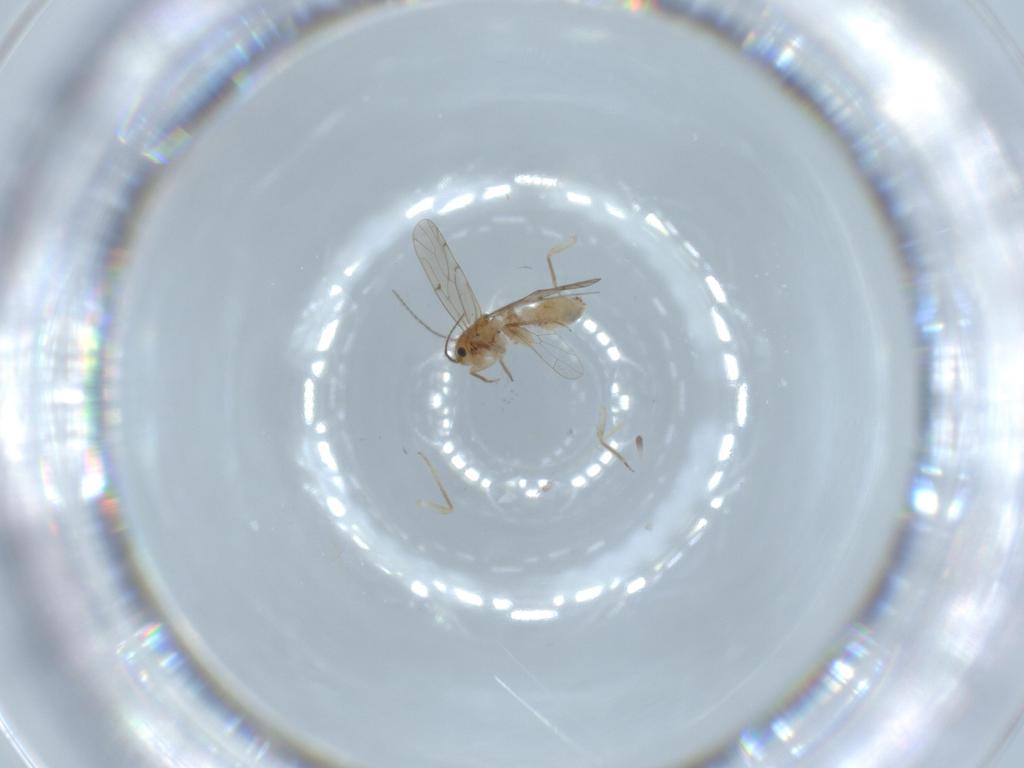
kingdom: Animalia
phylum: Arthropoda
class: Insecta
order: Diptera
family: Cecidomyiidae
